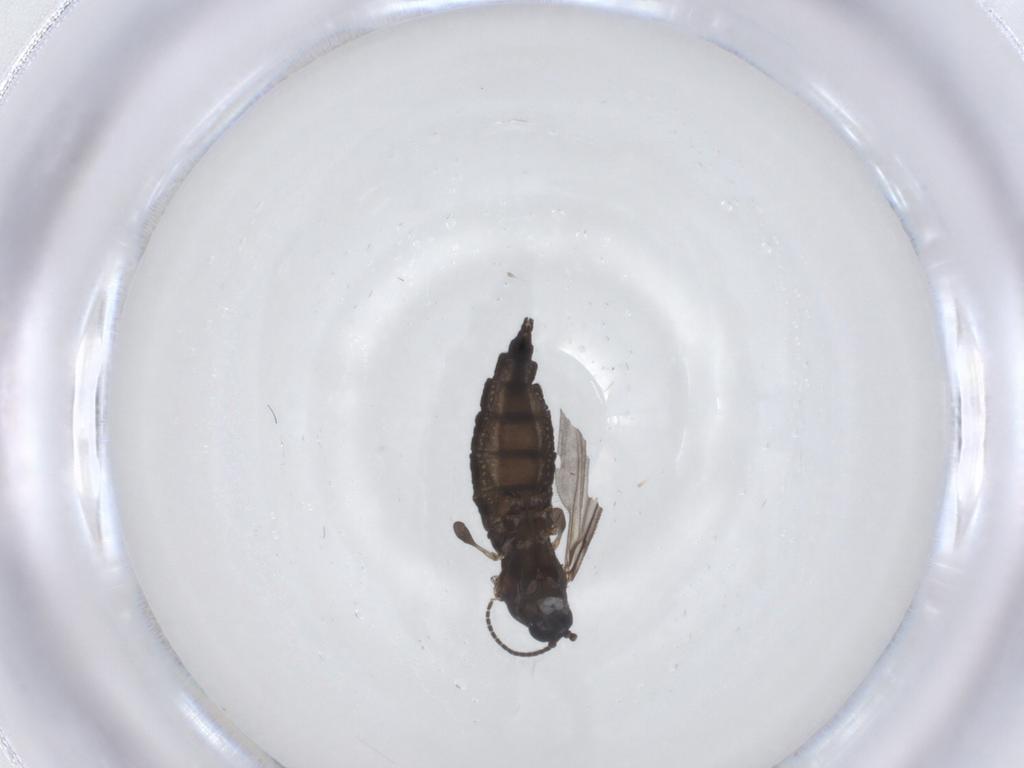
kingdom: Animalia
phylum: Arthropoda
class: Insecta
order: Diptera
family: Sciaridae
